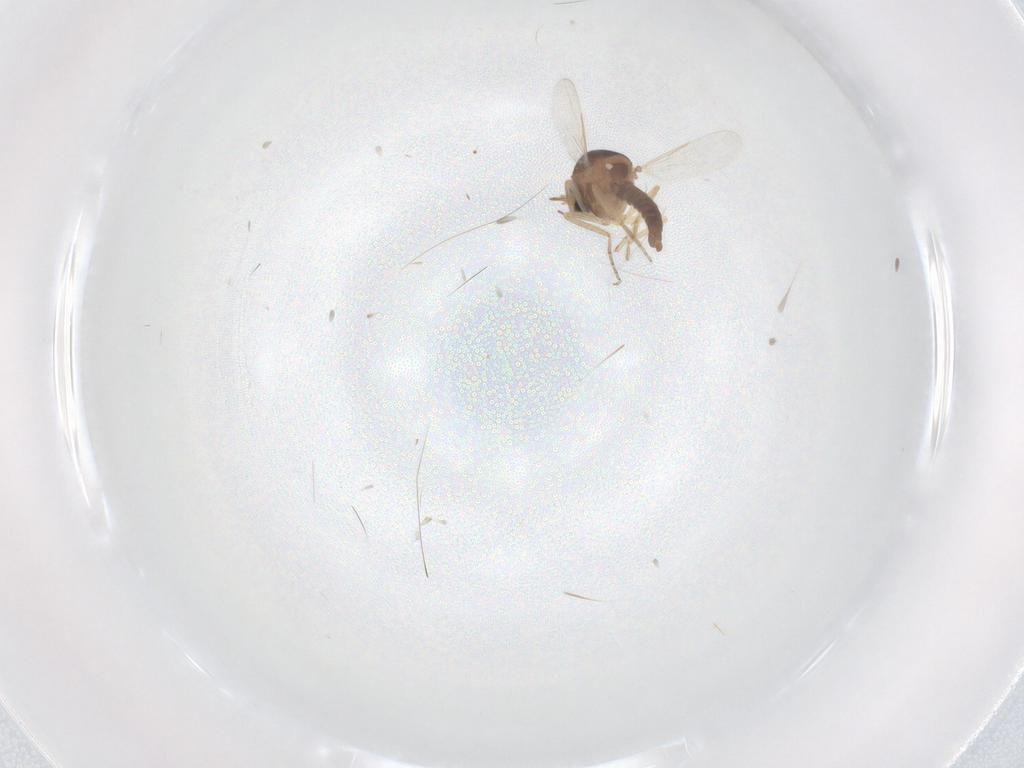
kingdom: Animalia
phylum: Arthropoda
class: Insecta
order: Diptera
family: Ceratopogonidae
